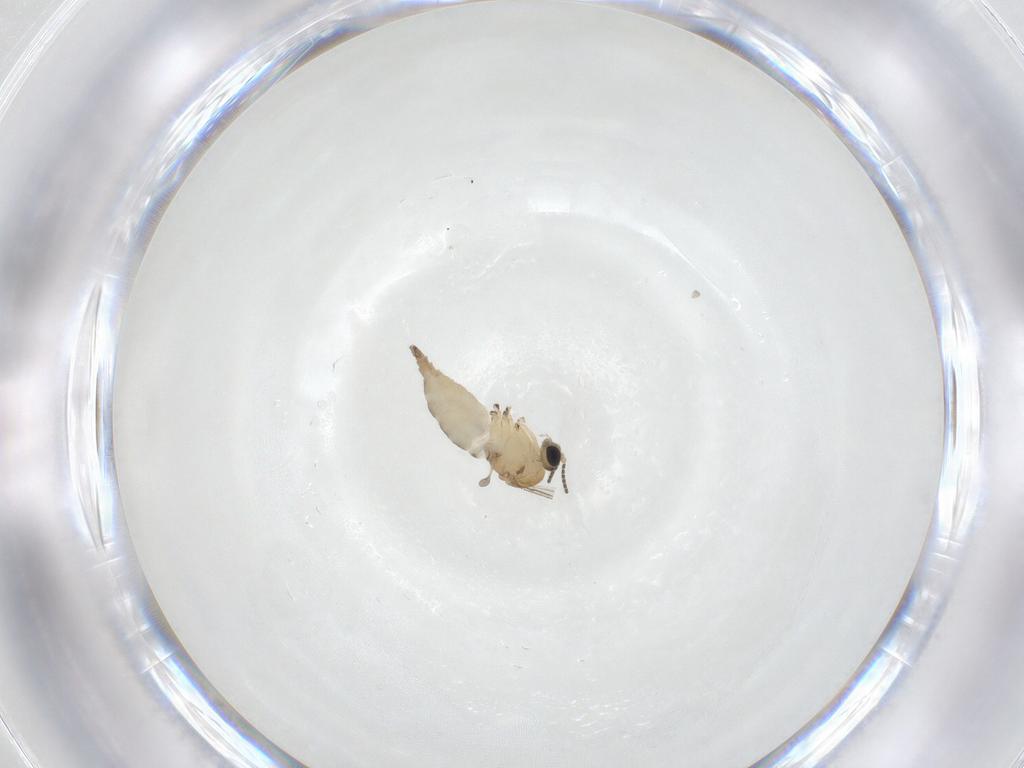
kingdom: Animalia
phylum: Arthropoda
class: Insecta
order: Diptera
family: Sciaridae
